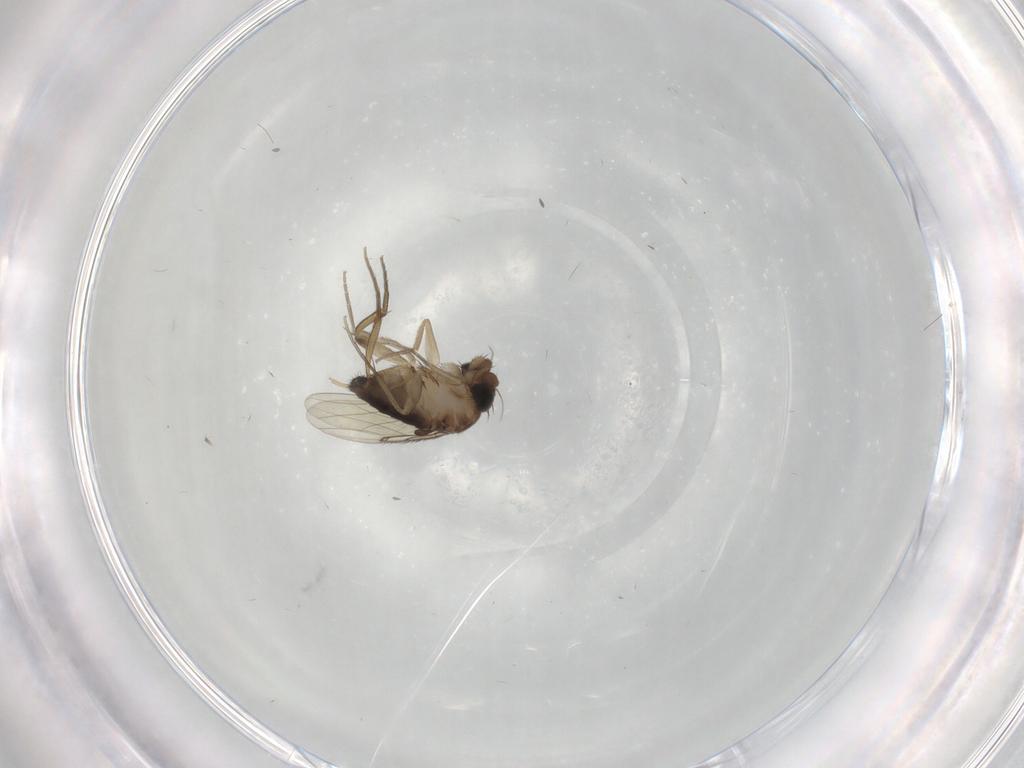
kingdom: Animalia
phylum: Arthropoda
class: Insecta
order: Diptera
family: Phoridae
